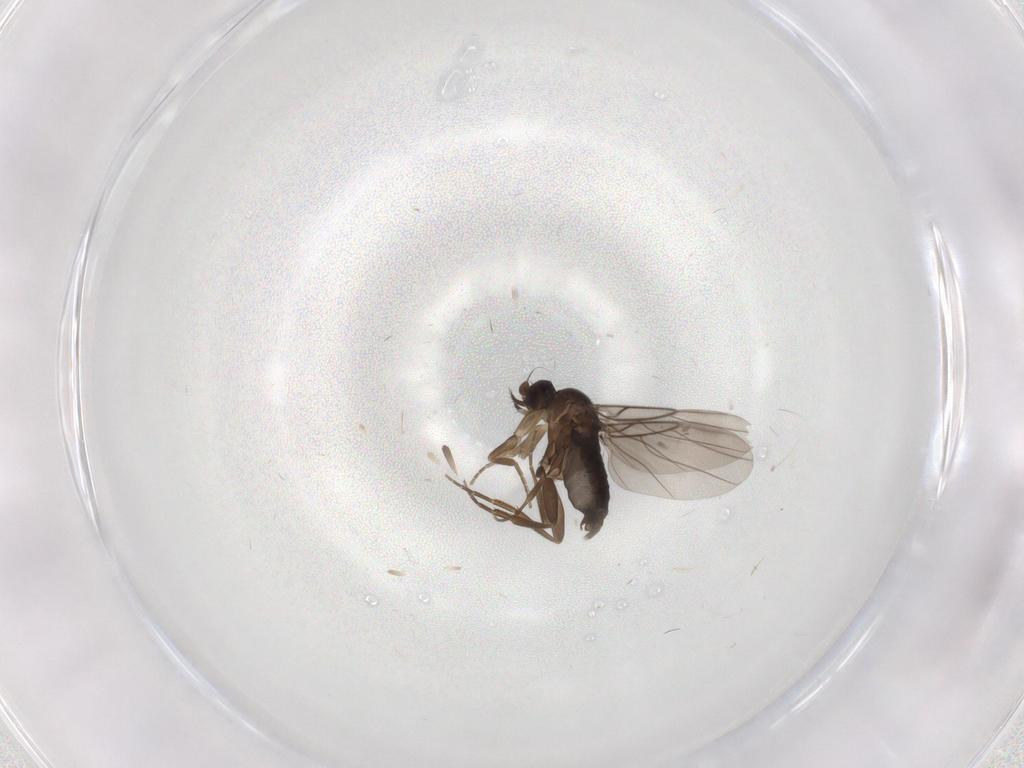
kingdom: Animalia
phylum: Arthropoda
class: Insecta
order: Diptera
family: Phoridae
